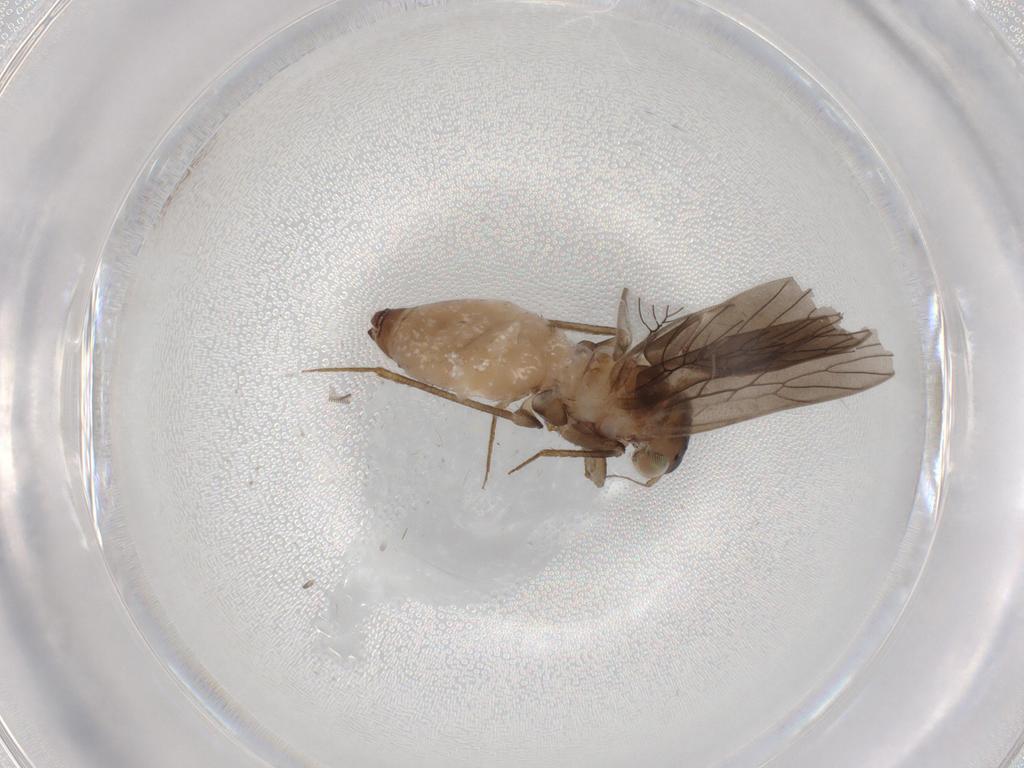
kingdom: Animalia
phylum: Arthropoda
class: Insecta
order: Psocodea
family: Lepidopsocidae
